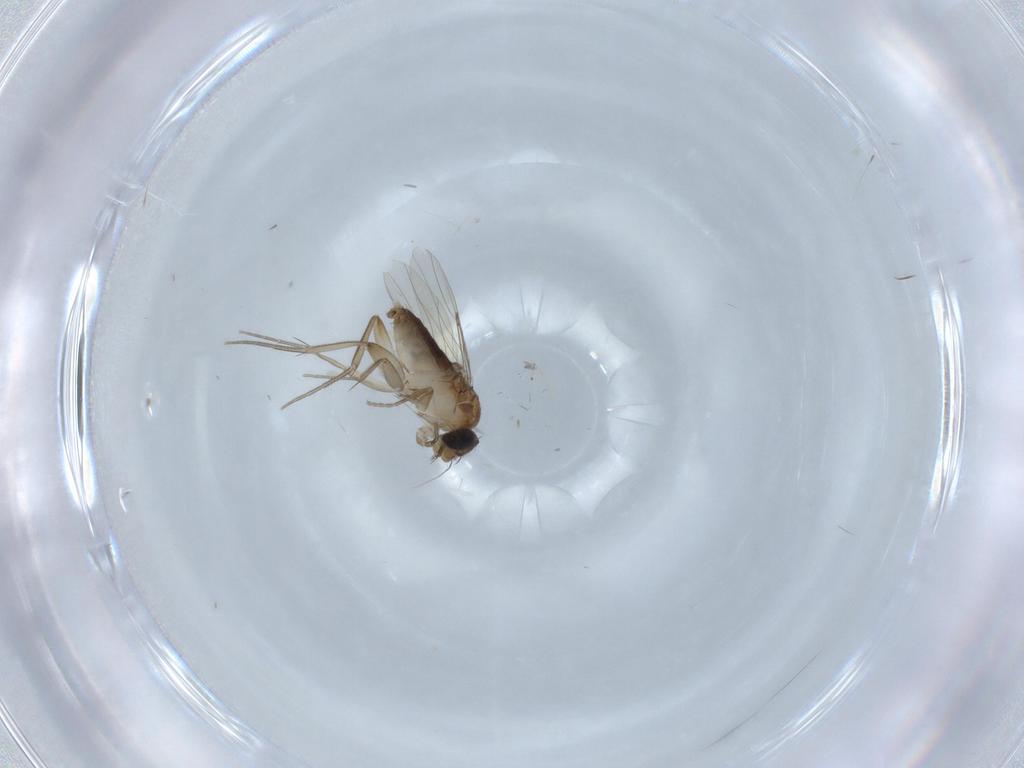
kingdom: Animalia
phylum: Arthropoda
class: Insecta
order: Diptera
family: Phoridae
